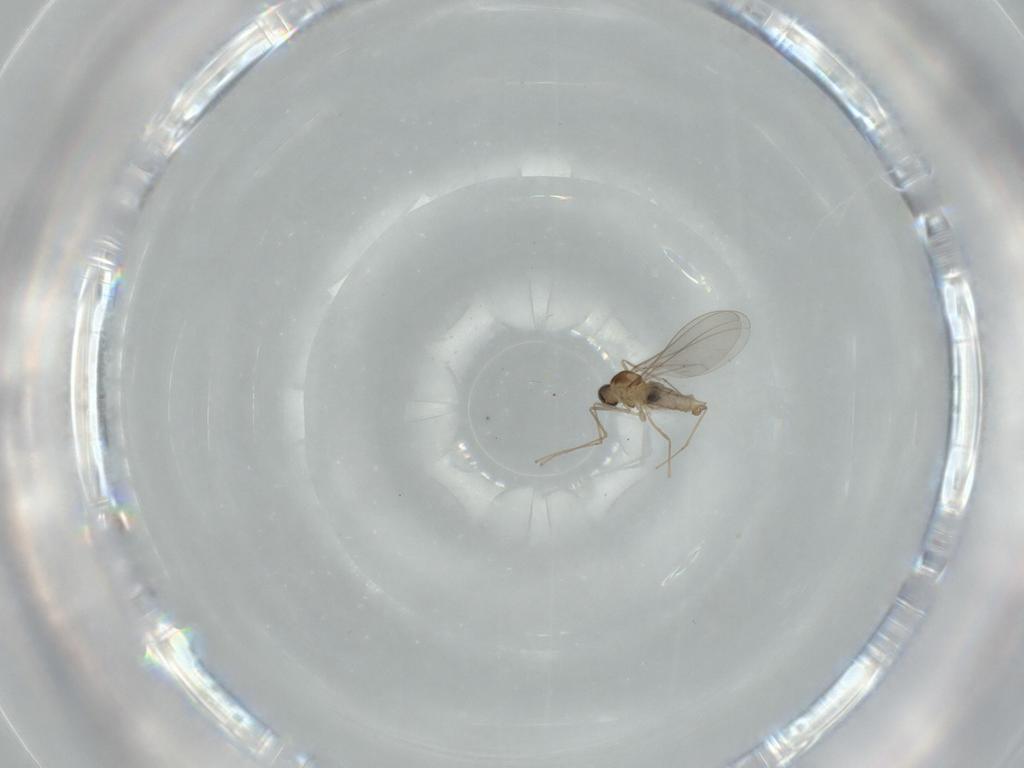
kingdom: Animalia
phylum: Arthropoda
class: Insecta
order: Diptera
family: Cecidomyiidae
